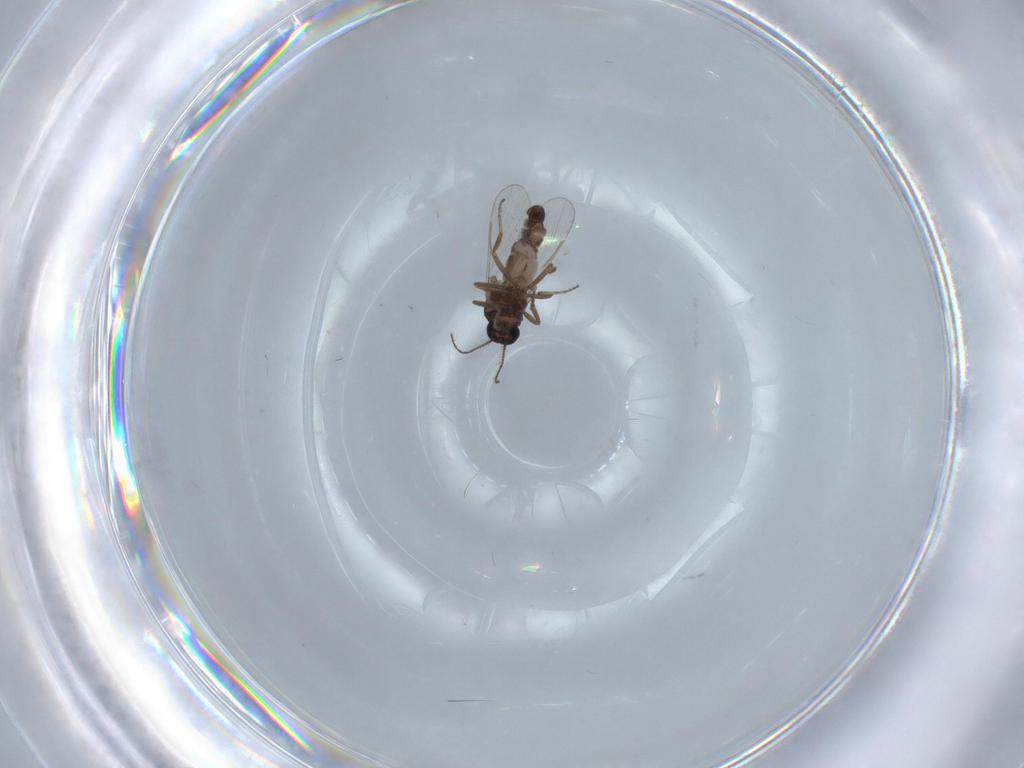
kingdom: Animalia
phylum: Arthropoda
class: Insecta
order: Diptera
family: Ceratopogonidae
